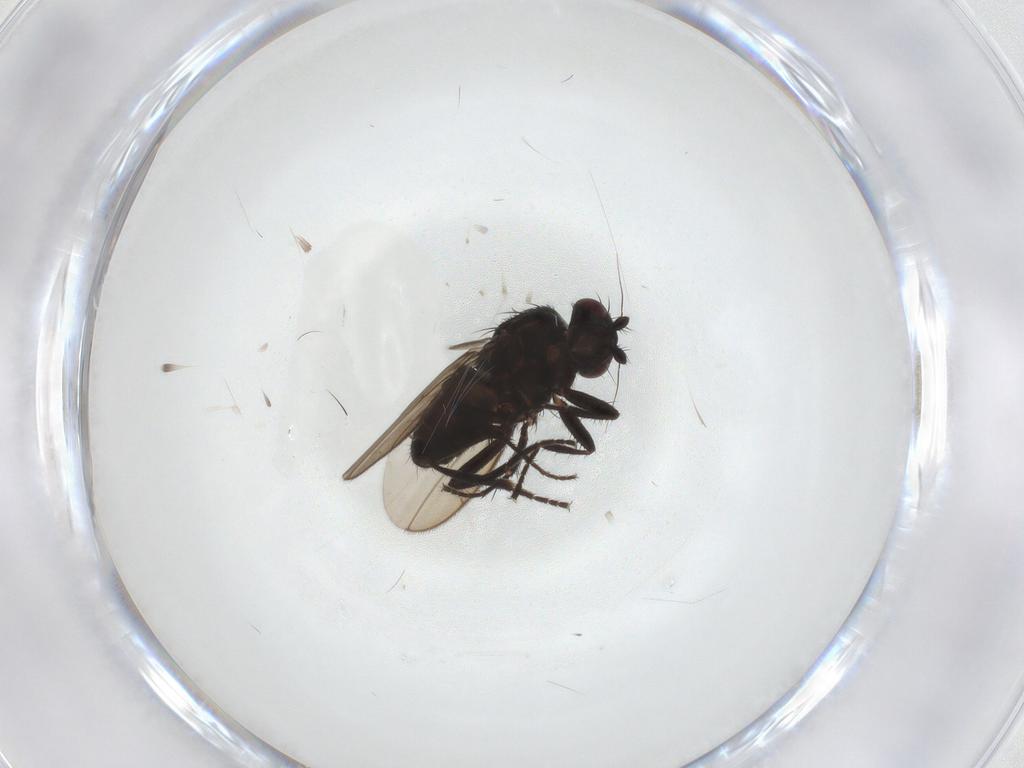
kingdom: Animalia
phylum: Arthropoda
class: Insecta
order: Diptera
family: Sphaeroceridae
